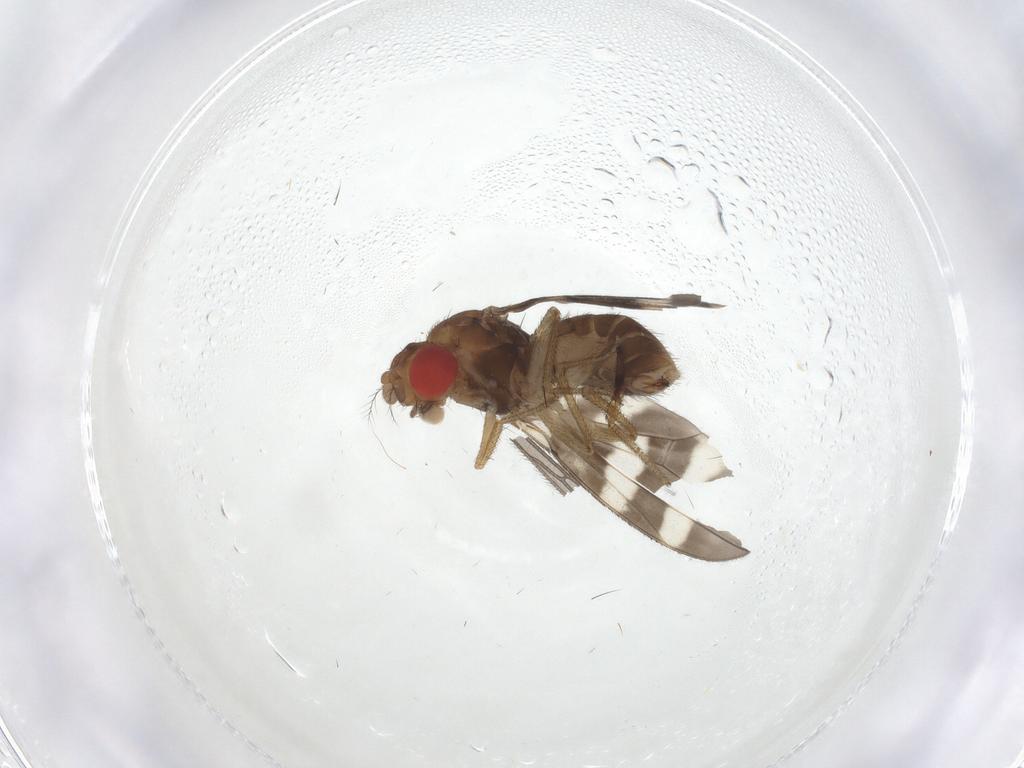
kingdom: Animalia
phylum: Arthropoda
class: Insecta
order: Diptera
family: Drosophilidae
